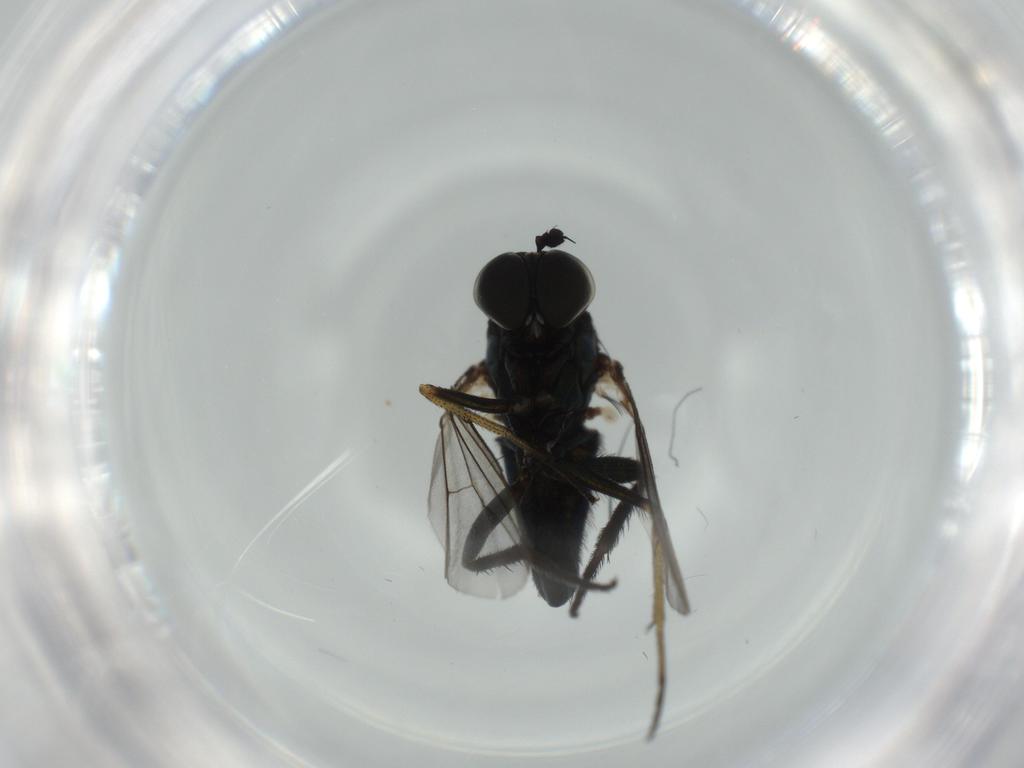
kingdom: Animalia
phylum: Arthropoda
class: Insecta
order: Diptera
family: Dolichopodidae
